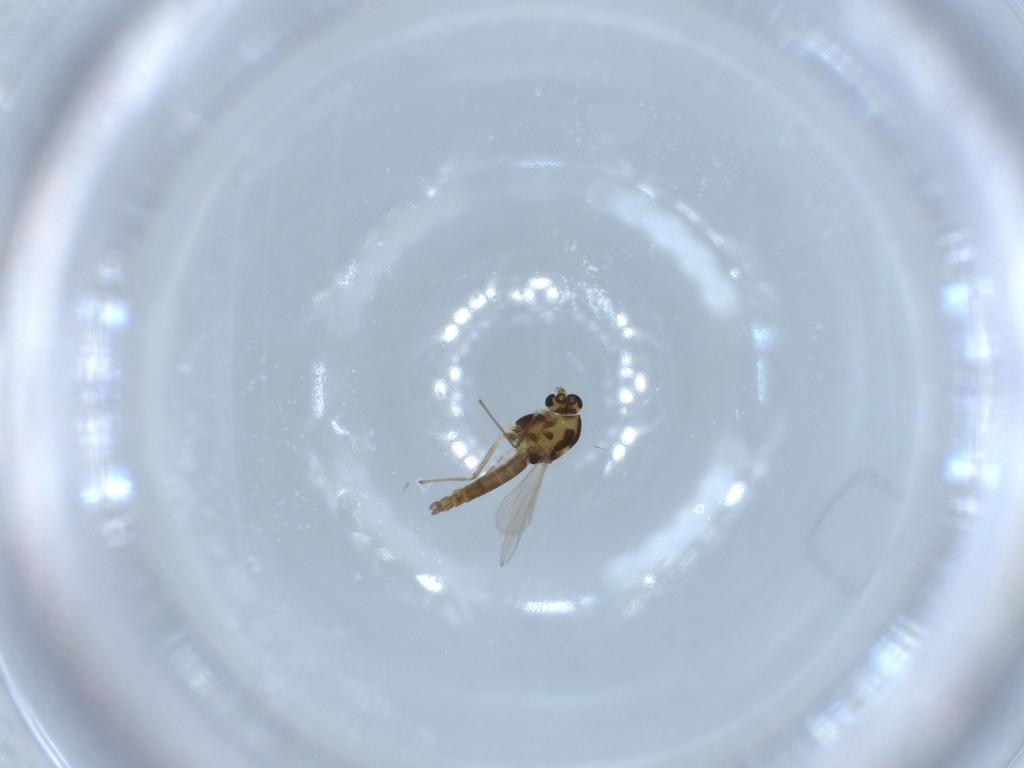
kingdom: Animalia
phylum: Arthropoda
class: Insecta
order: Diptera
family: Chironomidae
